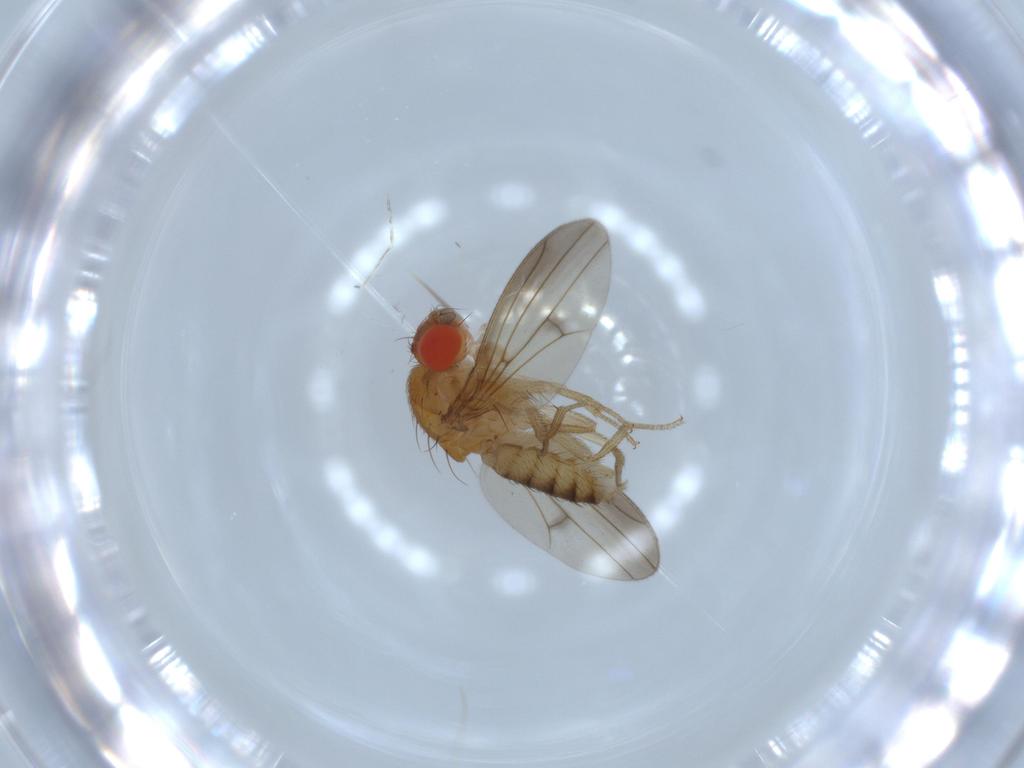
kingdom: Animalia
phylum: Arthropoda
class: Insecta
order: Diptera
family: Drosophilidae
